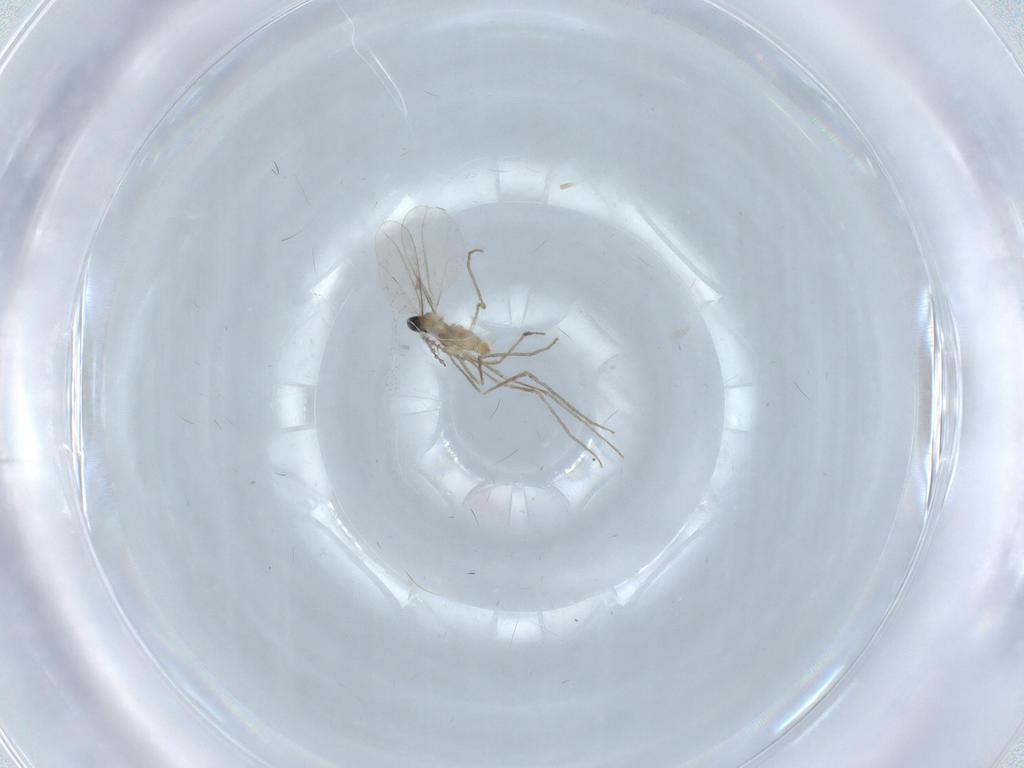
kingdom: Animalia
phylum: Arthropoda
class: Insecta
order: Diptera
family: Cecidomyiidae
